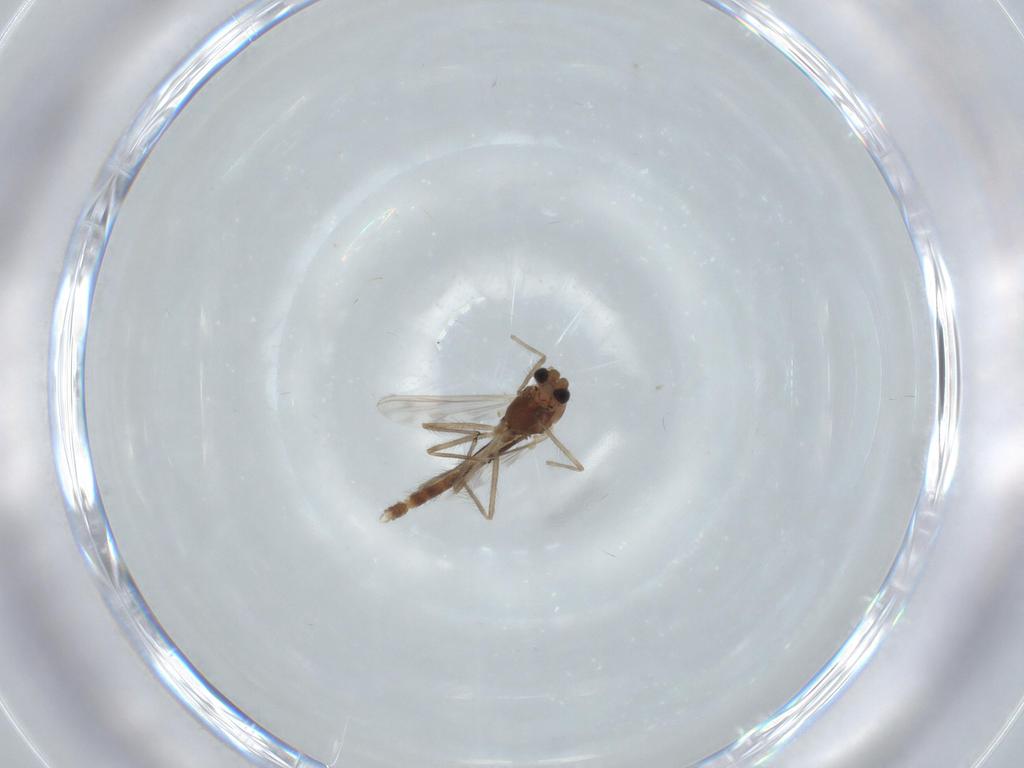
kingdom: Animalia
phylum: Arthropoda
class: Insecta
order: Diptera
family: Chironomidae
